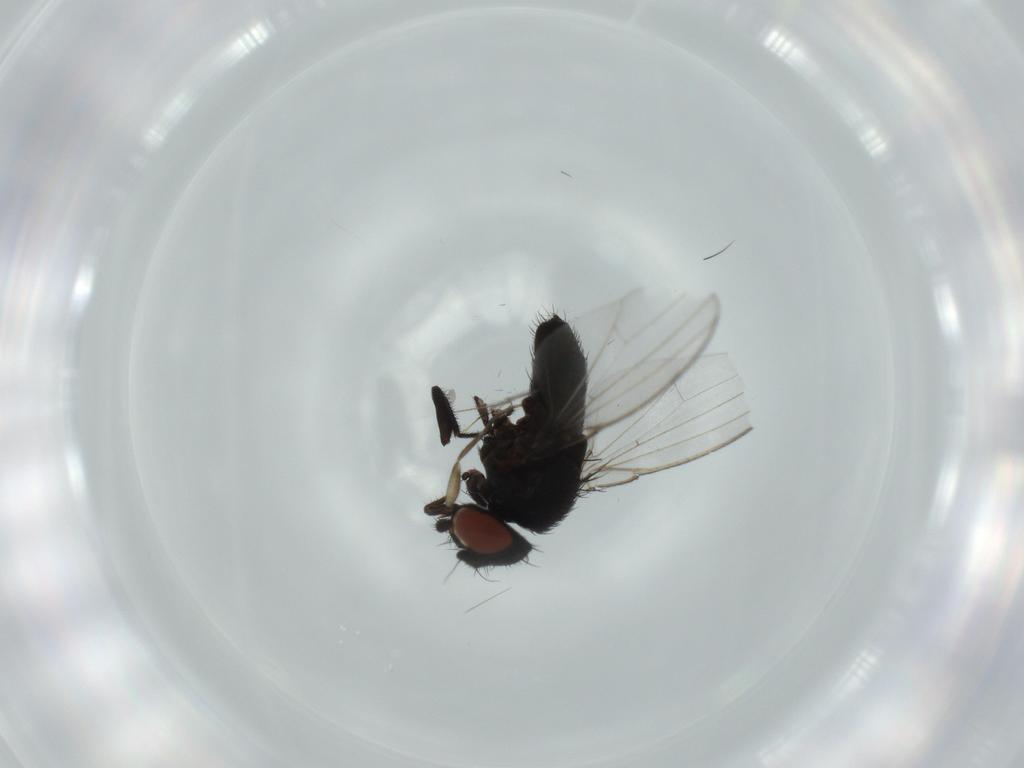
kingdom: Animalia
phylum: Arthropoda
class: Insecta
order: Diptera
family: Milichiidae
